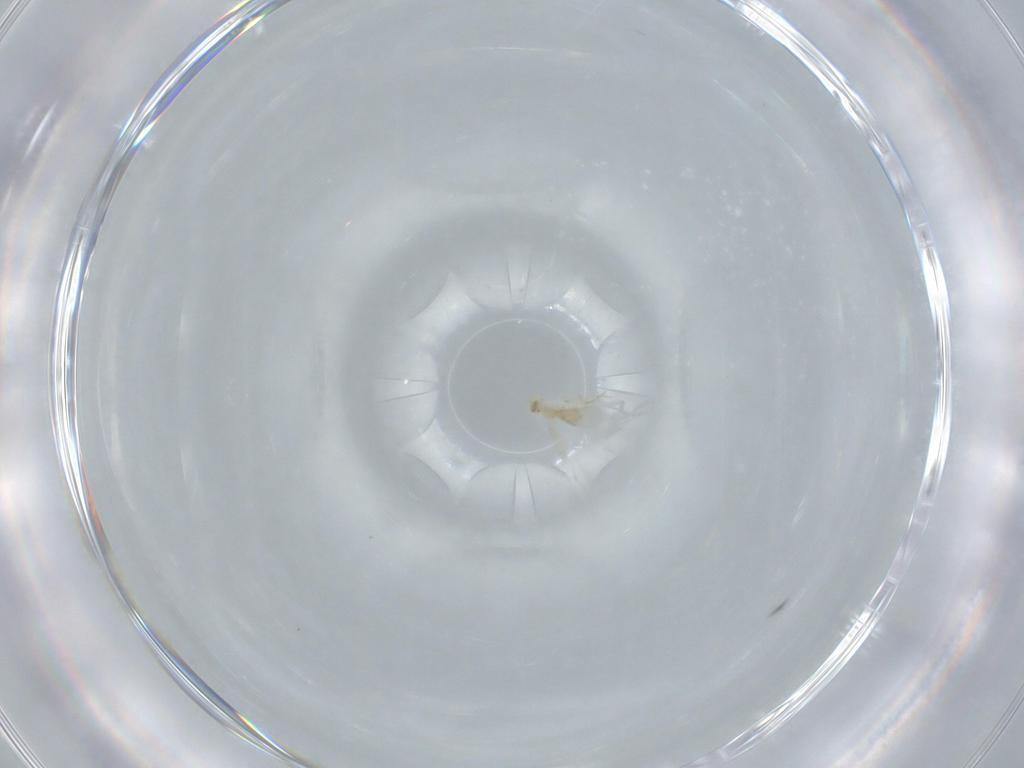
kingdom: Animalia
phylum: Arthropoda
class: Insecta
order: Hymenoptera
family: Aphelinidae
